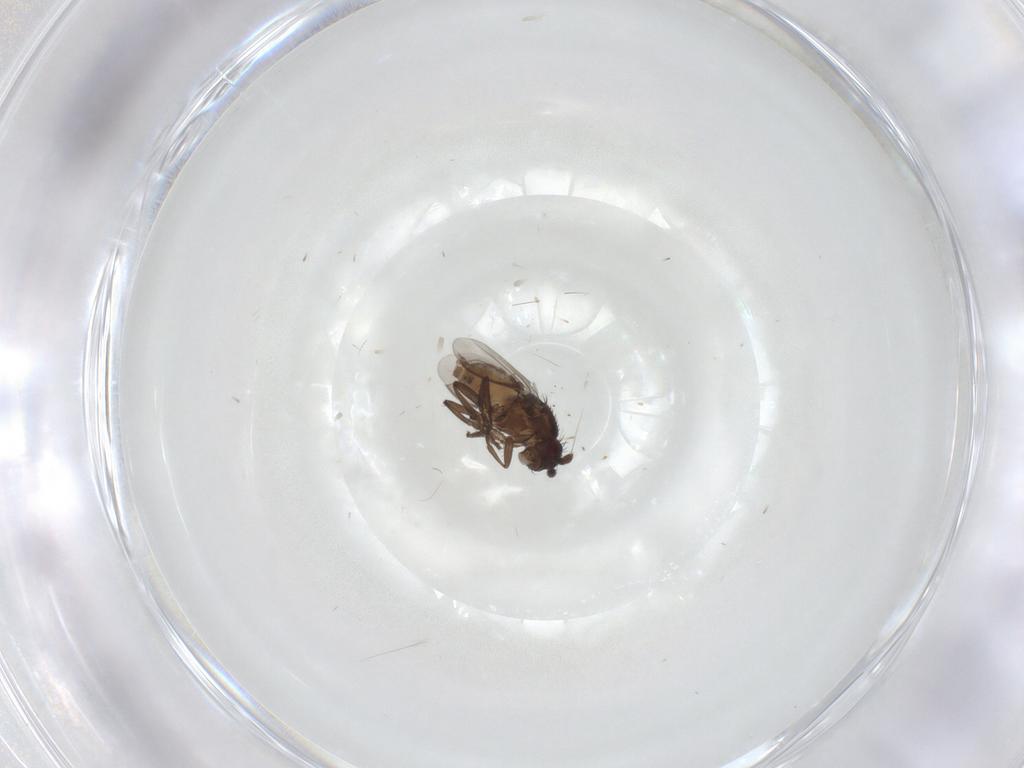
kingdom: Animalia
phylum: Arthropoda
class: Insecta
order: Diptera
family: Sphaeroceridae
